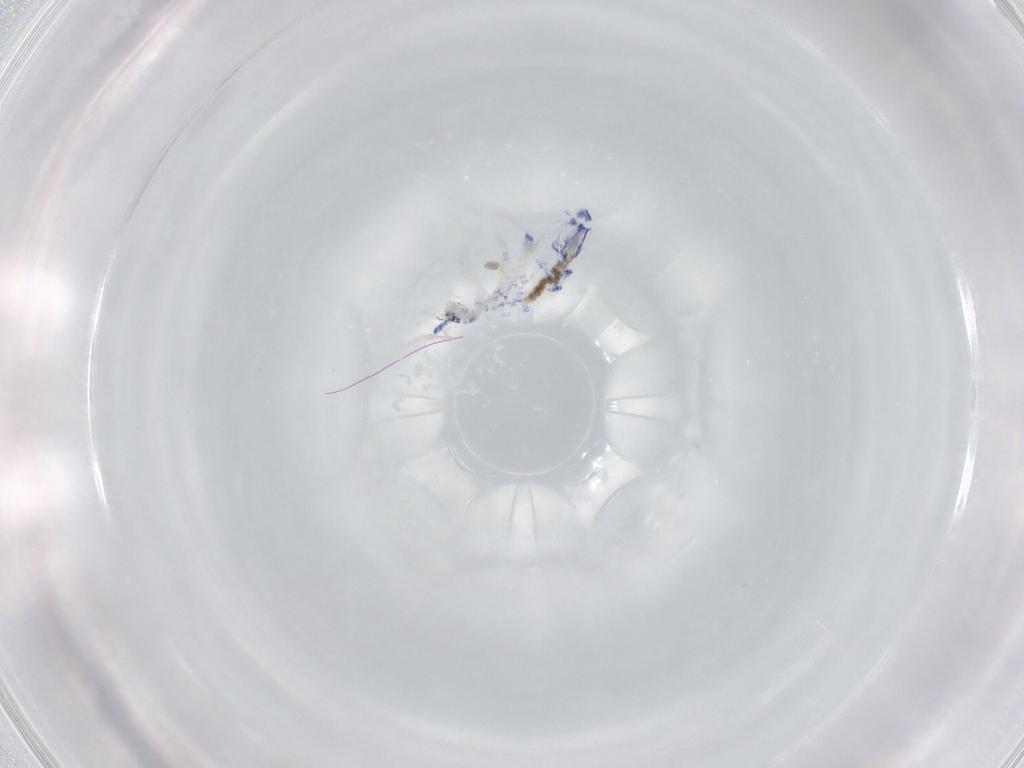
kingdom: Animalia
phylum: Arthropoda
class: Collembola
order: Entomobryomorpha
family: Entomobryidae
